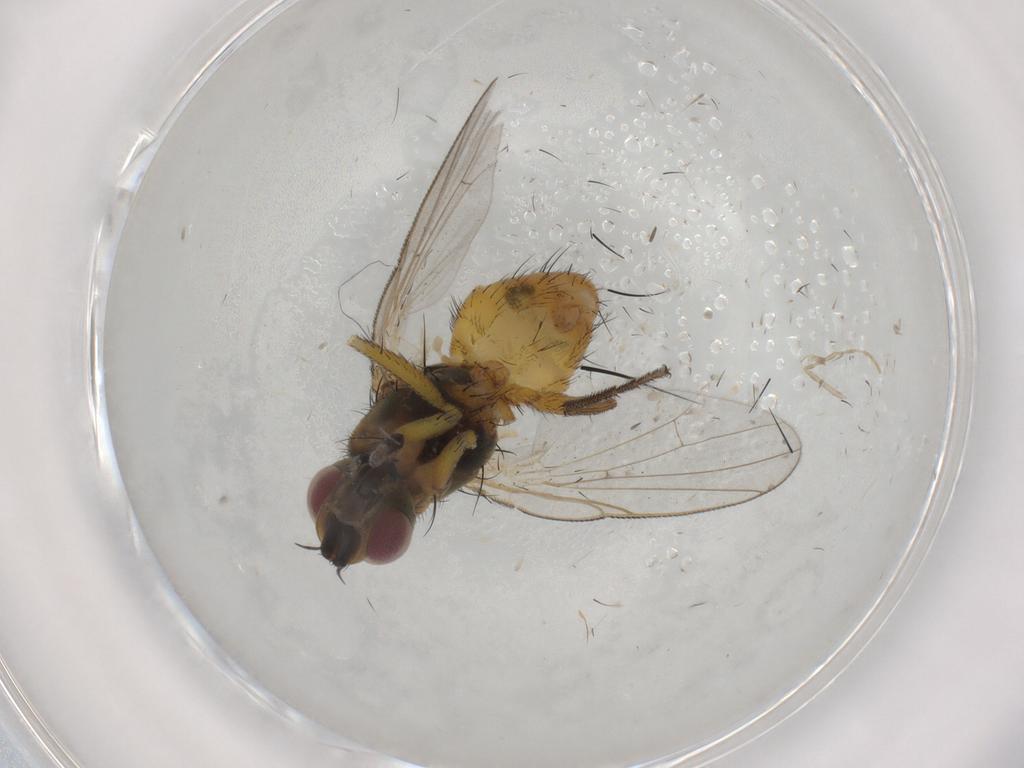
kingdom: Animalia
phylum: Arthropoda
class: Insecta
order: Diptera
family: Muscidae
